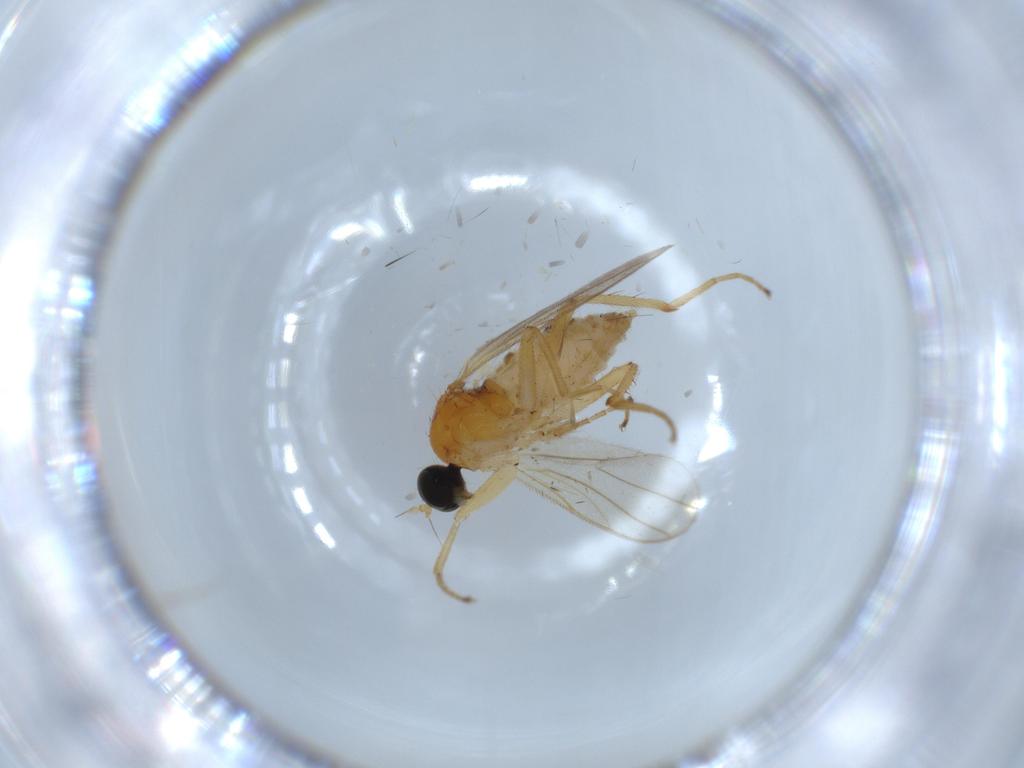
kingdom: Animalia
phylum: Arthropoda
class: Insecta
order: Diptera
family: Hybotidae
